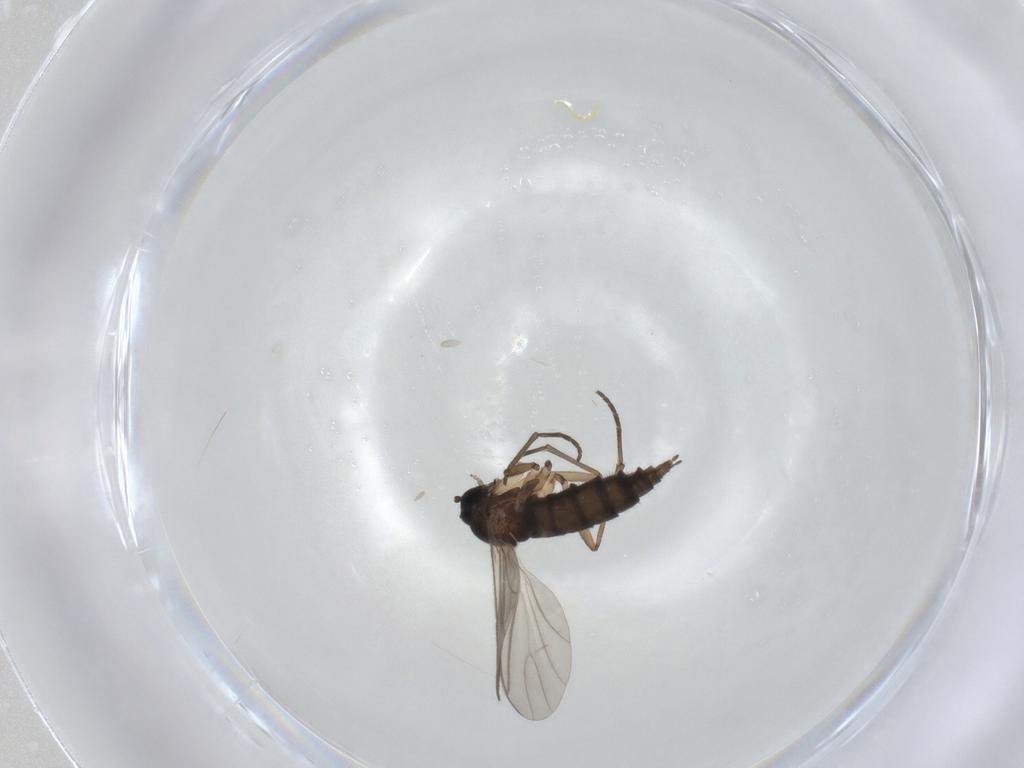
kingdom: Animalia
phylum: Arthropoda
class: Insecta
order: Diptera
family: Sciaridae
